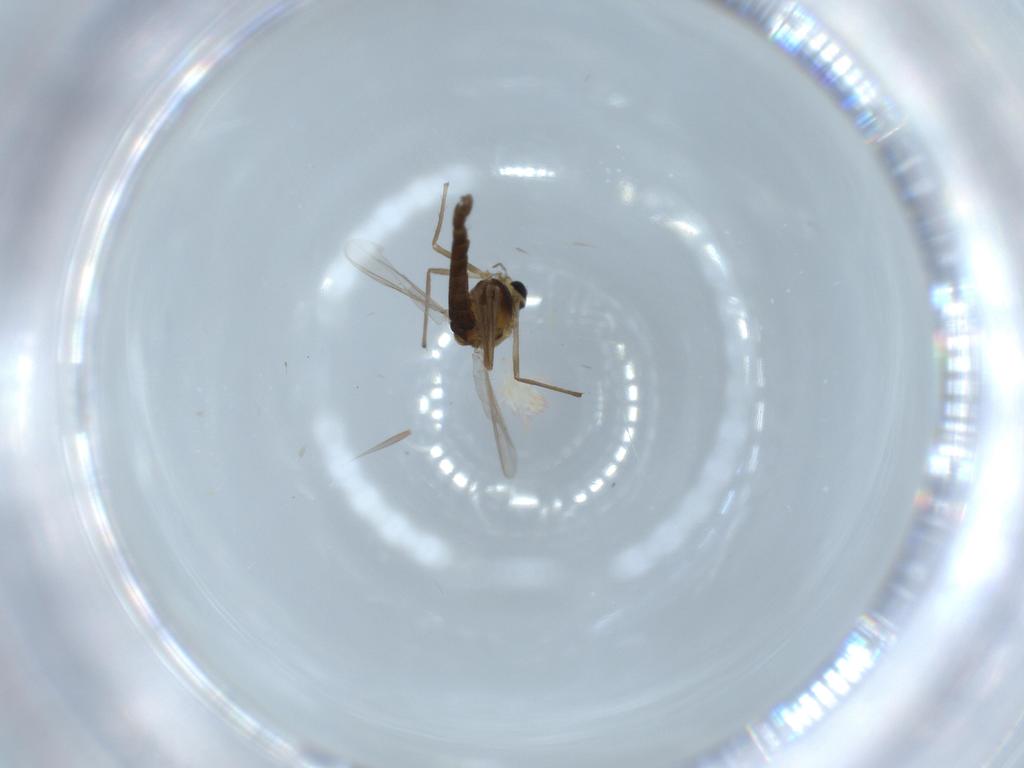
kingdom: Animalia
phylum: Arthropoda
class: Insecta
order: Diptera
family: Chironomidae
